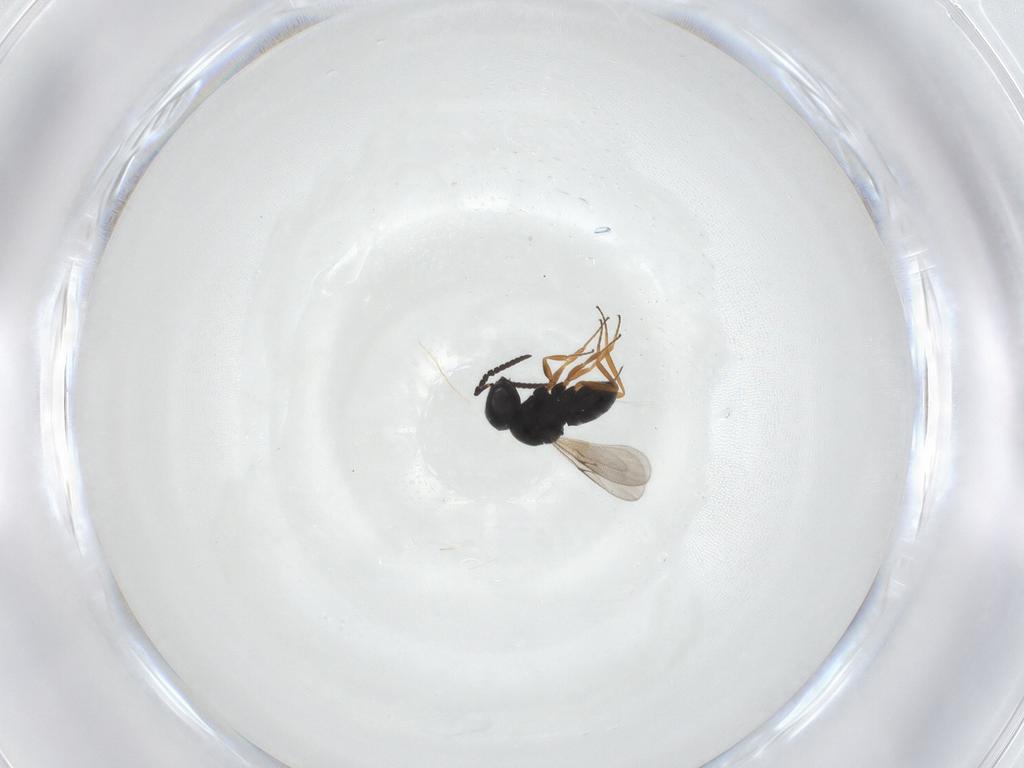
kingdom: Animalia
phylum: Arthropoda
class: Insecta
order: Hymenoptera
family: Scelionidae
